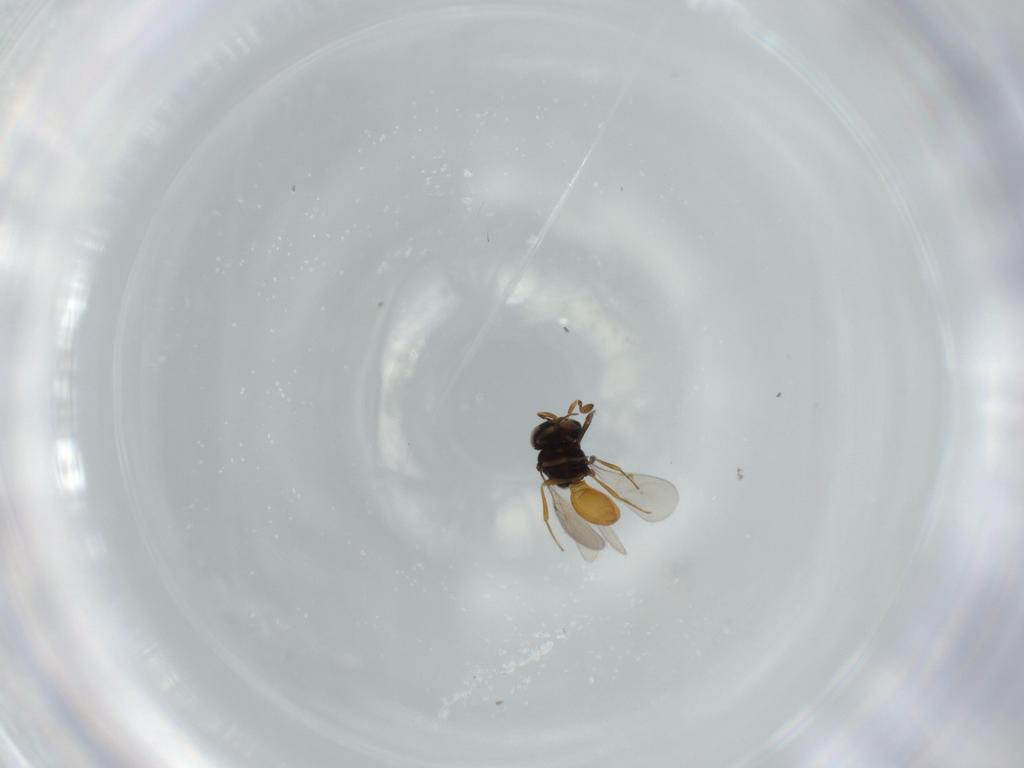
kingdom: Animalia
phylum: Arthropoda
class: Insecta
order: Hymenoptera
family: Scelionidae
